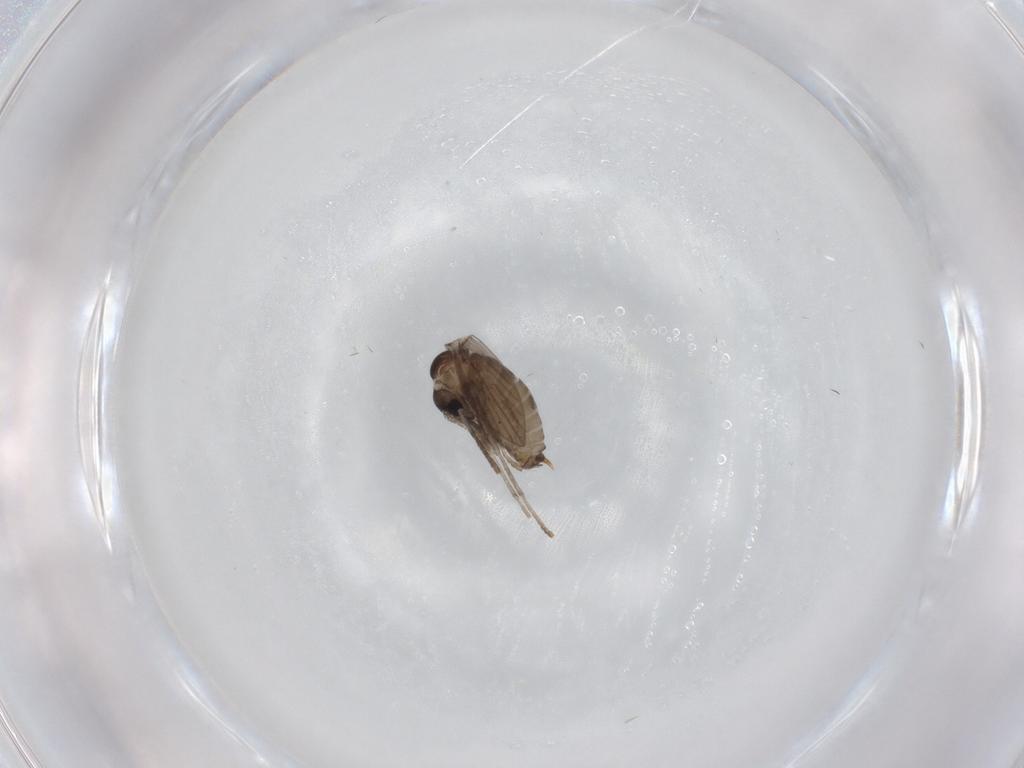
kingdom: Animalia
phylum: Arthropoda
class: Insecta
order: Diptera
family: Psychodidae
